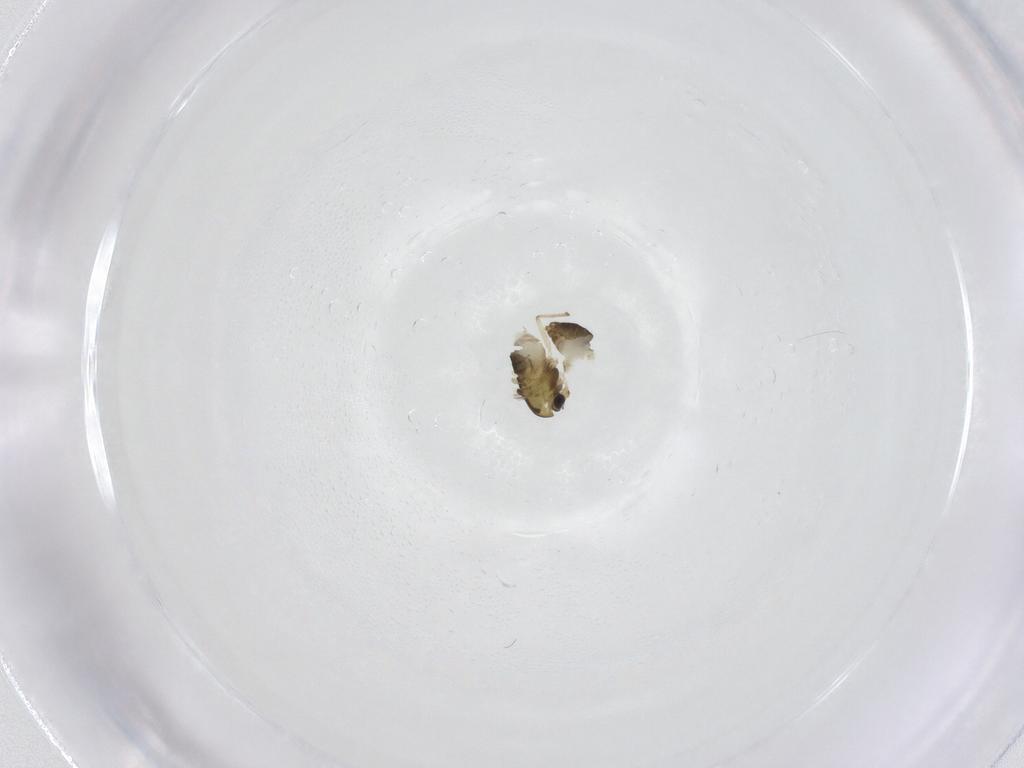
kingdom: Animalia
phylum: Arthropoda
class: Insecta
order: Diptera
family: Chironomidae
